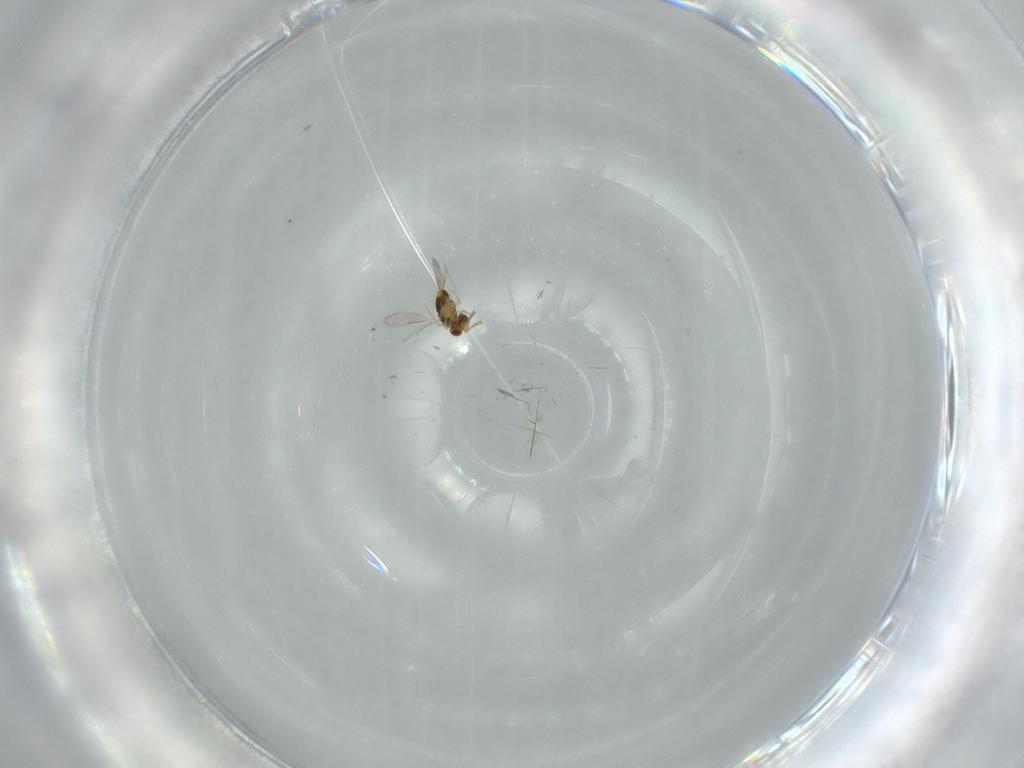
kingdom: Animalia
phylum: Arthropoda
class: Insecta
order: Hymenoptera
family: Aphelinidae
